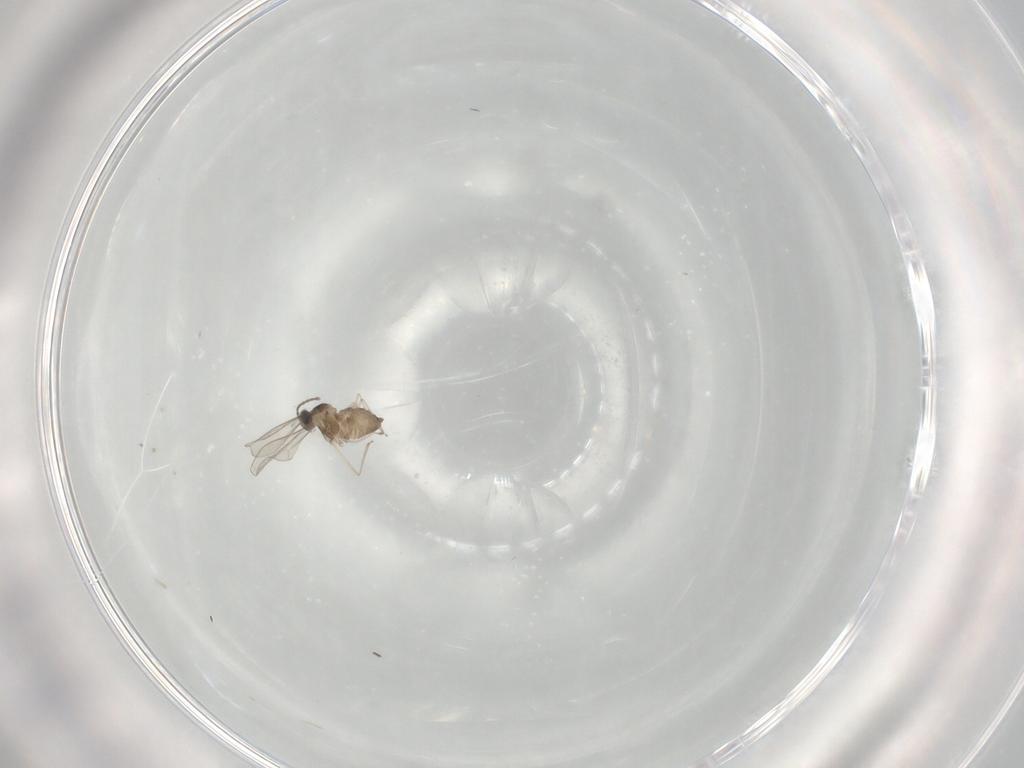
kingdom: Animalia
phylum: Arthropoda
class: Insecta
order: Diptera
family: Cecidomyiidae
